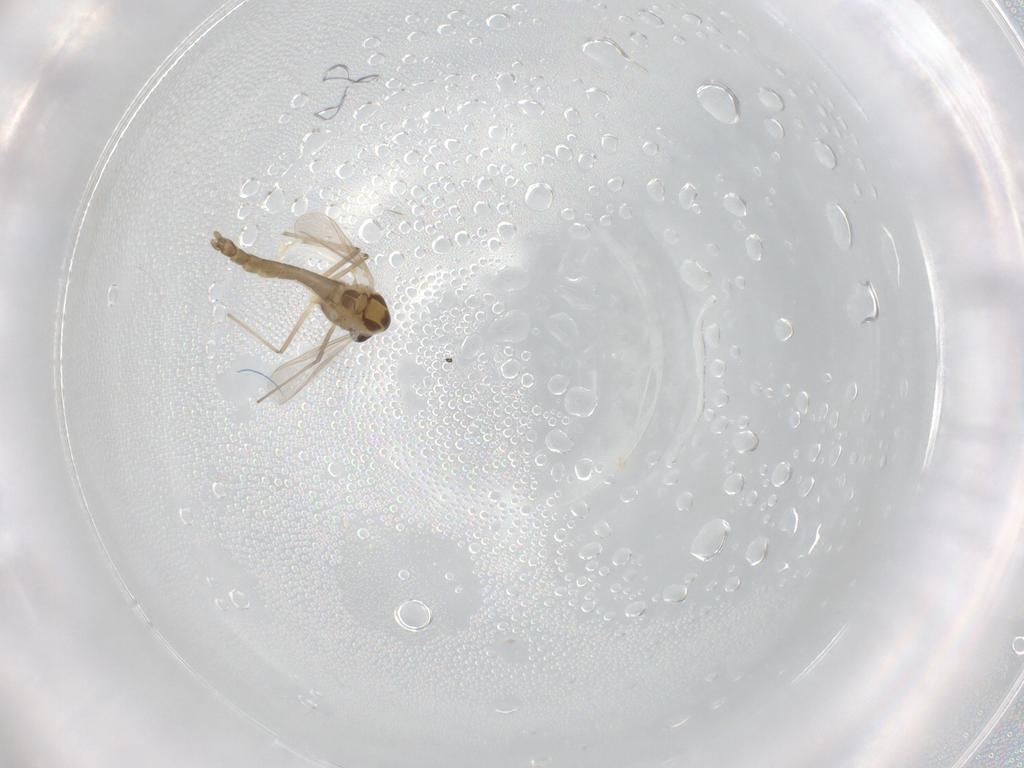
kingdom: Animalia
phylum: Arthropoda
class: Insecta
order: Diptera
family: Chironomidae
